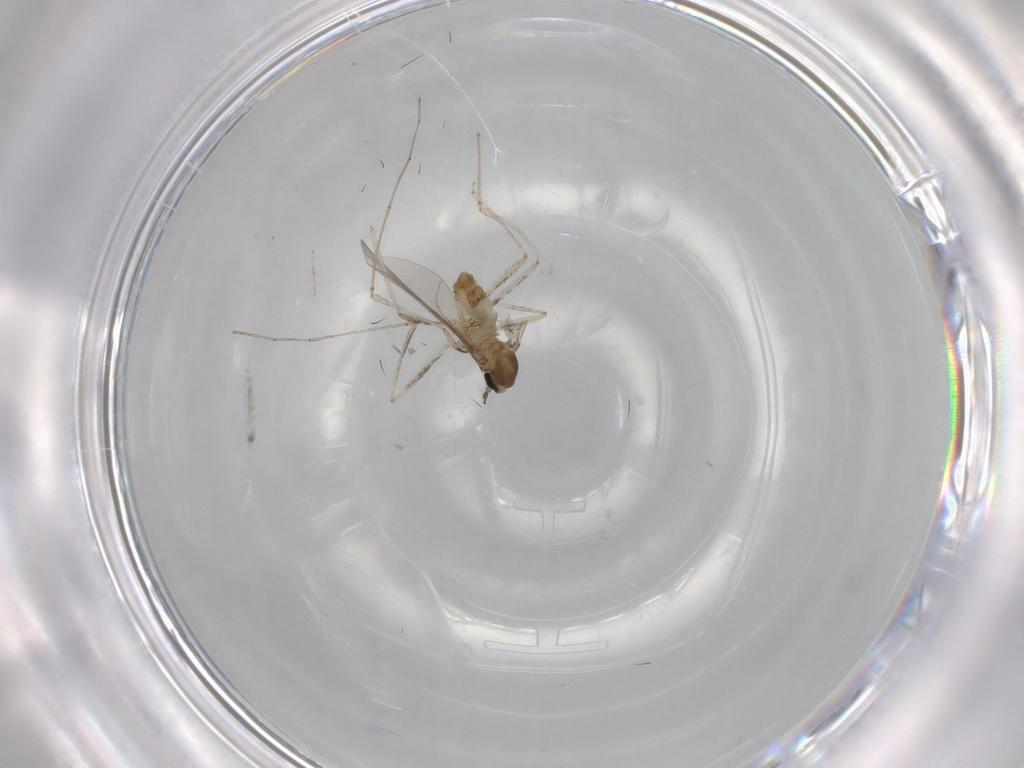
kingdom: Animalia
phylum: Arthropoda
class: Insecta
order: Diptera
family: Cecidomyiidae
